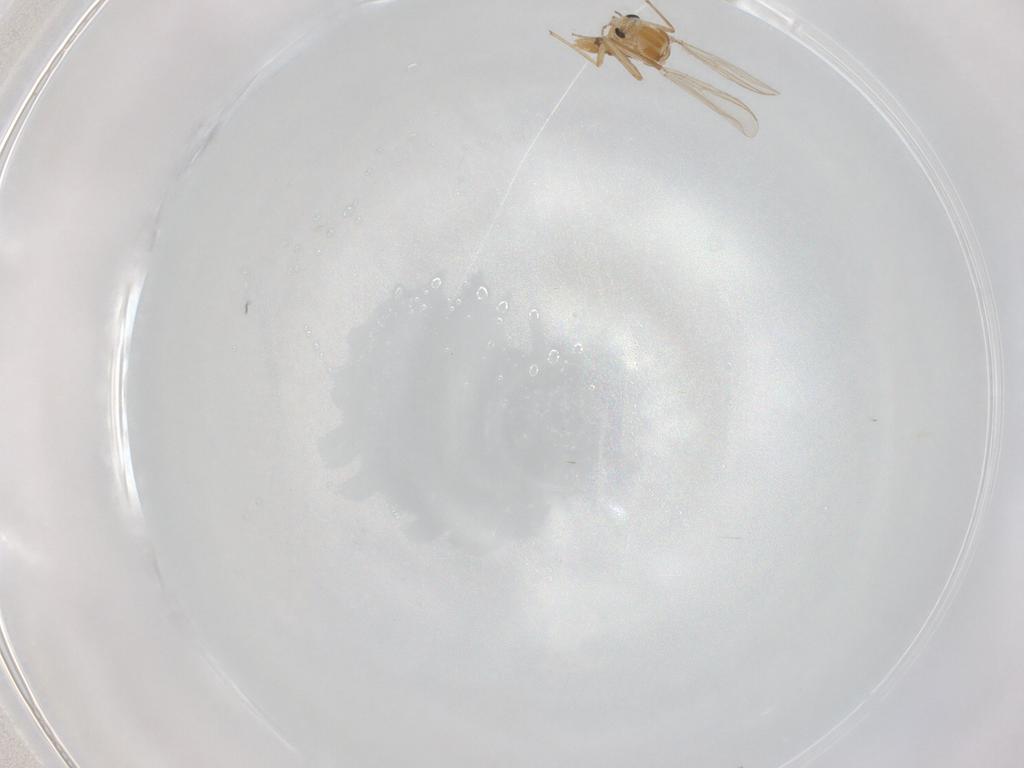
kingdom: Animalia
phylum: Arthropoda
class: Insecta
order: Diptera
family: Chironomidae
